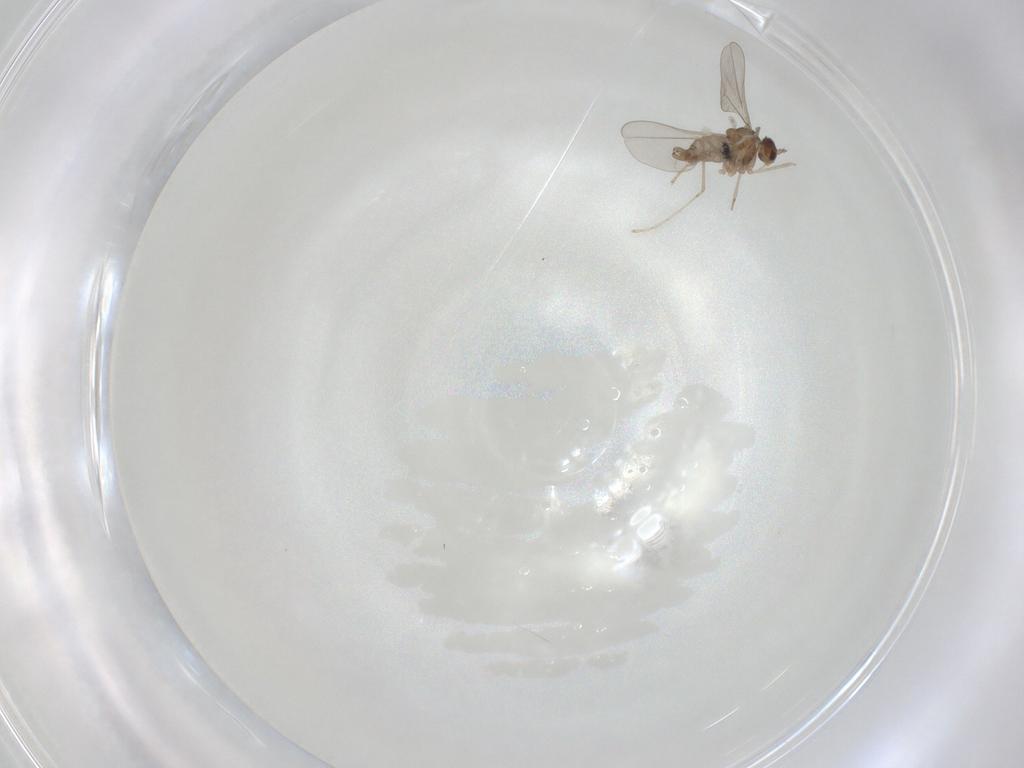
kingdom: Animalia
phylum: Arthropoda
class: Insecta
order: Diptera
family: Cecidomyiidae
